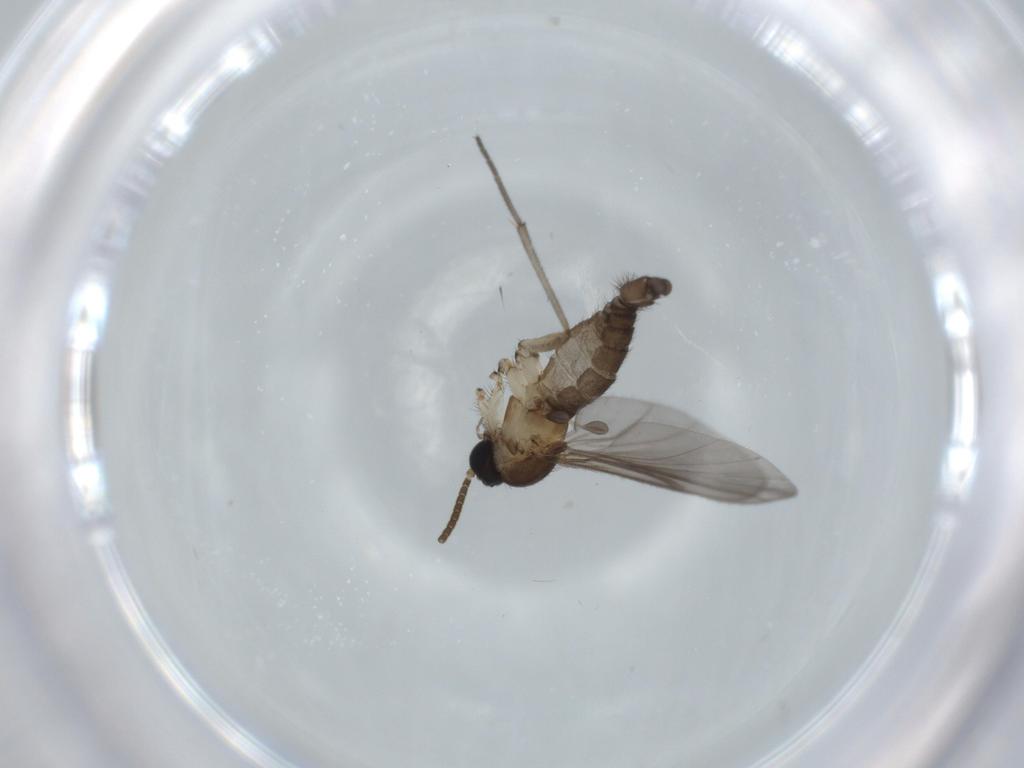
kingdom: Animalia
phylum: Arthropoda
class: Insecta
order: Diptera
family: Sciaridae
